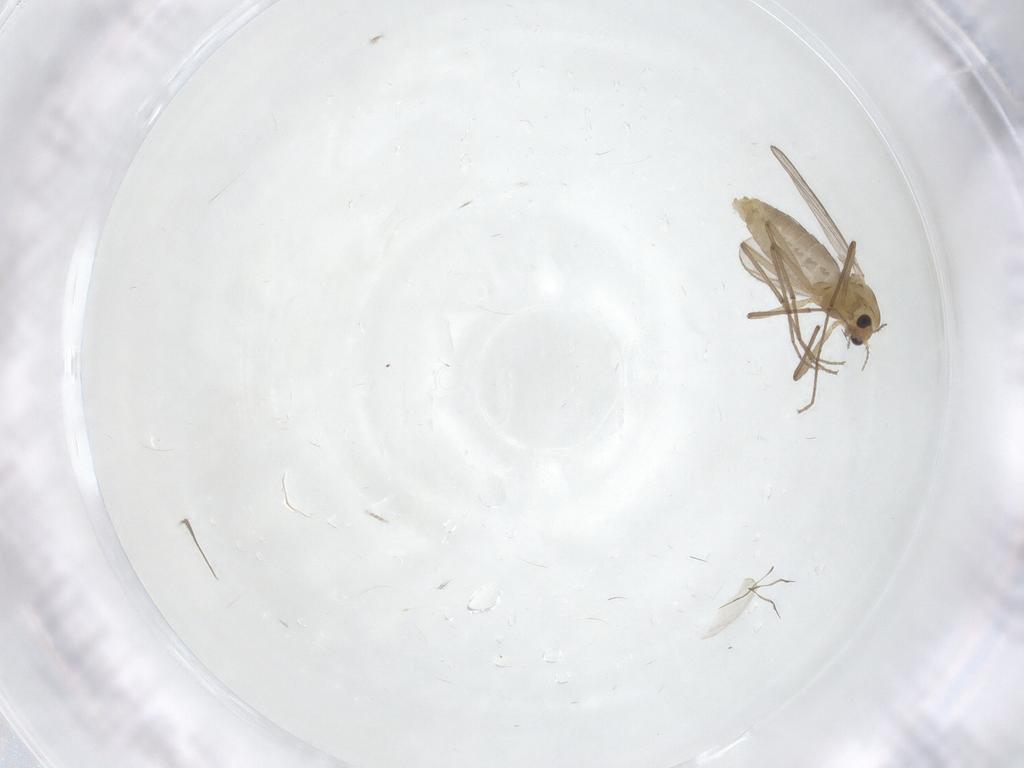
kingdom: Animalia
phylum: Arthropoda
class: Insecta
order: Diptera
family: Chironomidae
